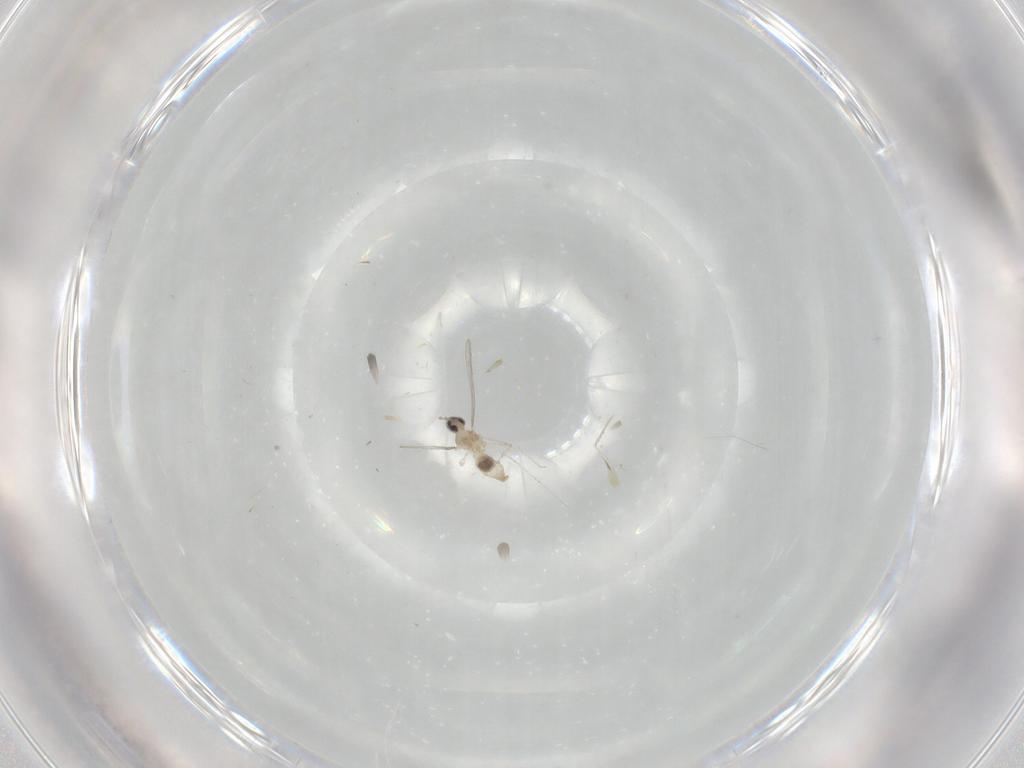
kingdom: Animalia
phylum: Arthropoda
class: Insecta
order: Diptera
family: Cecidomyiidae
